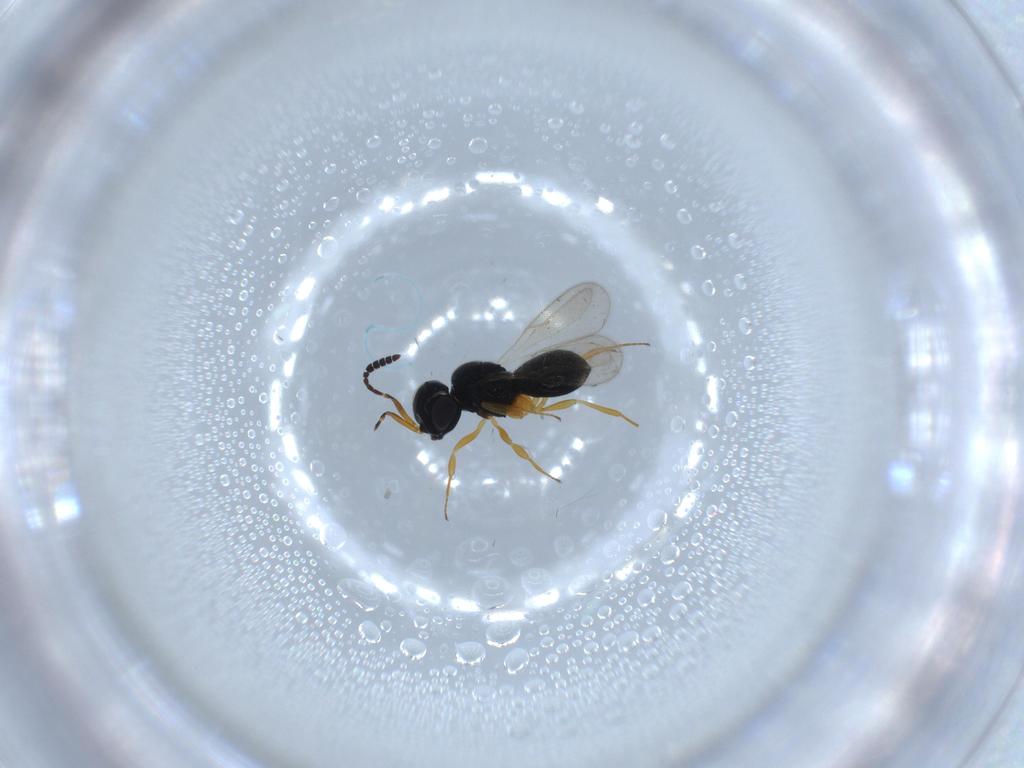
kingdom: Animalia
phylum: Arthropoda
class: Insecta
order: Hymenoptera
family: Scelionidae
